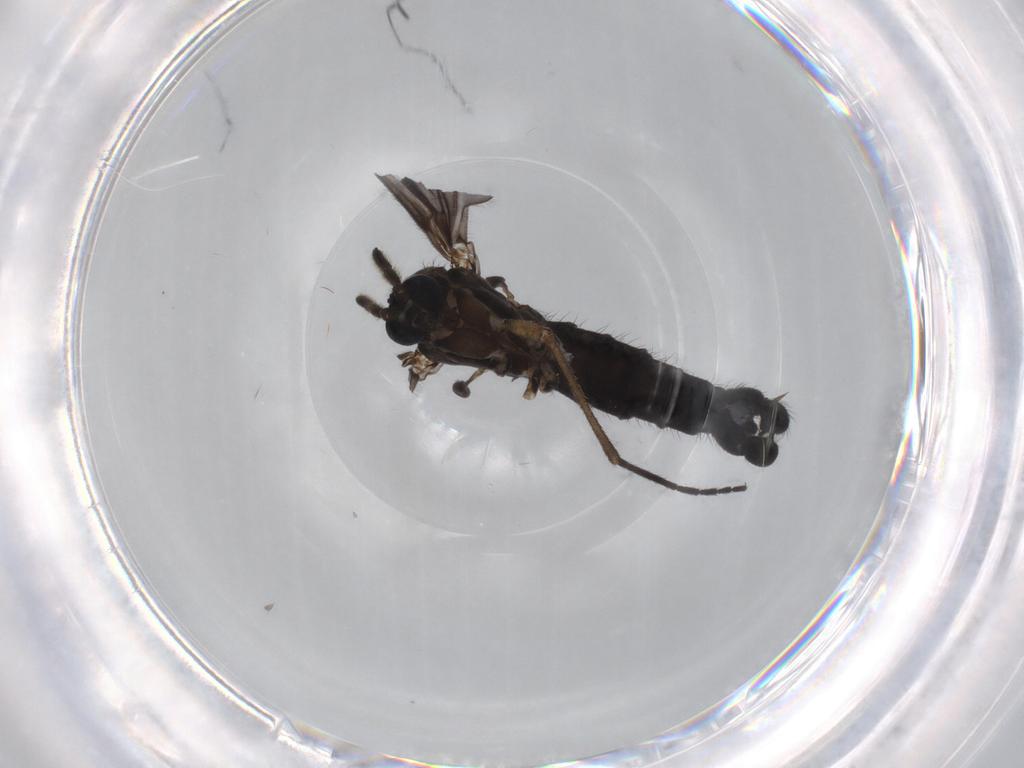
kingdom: Animalia
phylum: Arthropoda
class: Insecta
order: Diptera
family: Sciaridae
